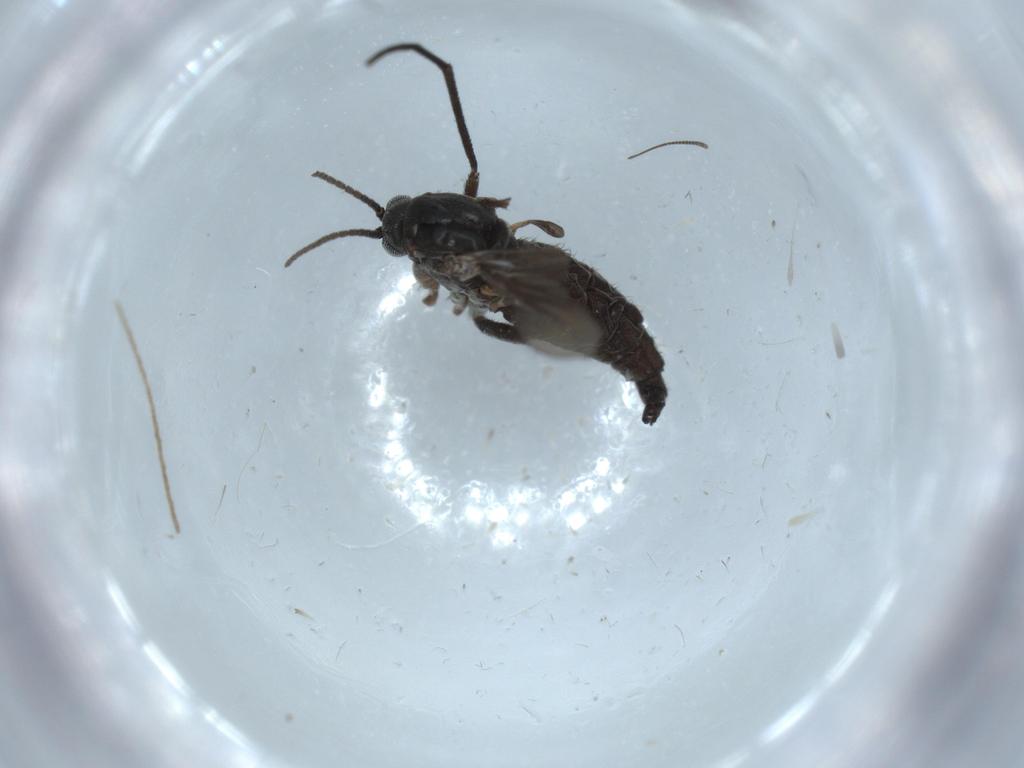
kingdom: Animalia
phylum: Arthropoda
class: Insecta
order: Diptera
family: Sciaridae
